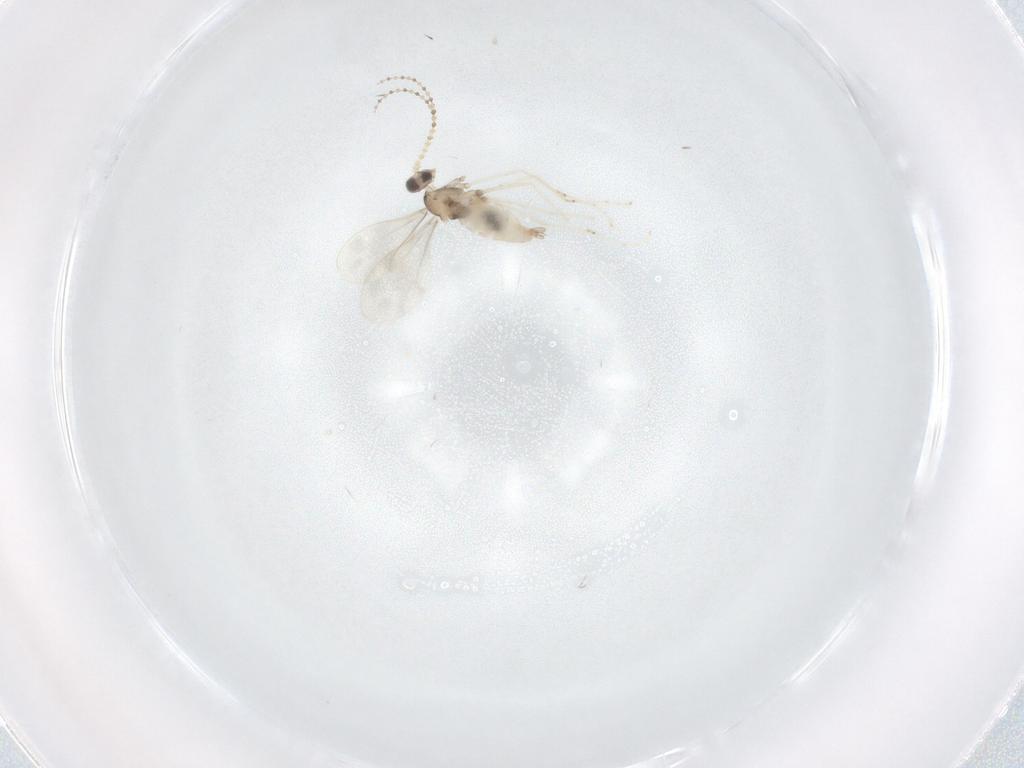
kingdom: Animalia
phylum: Arthropoda
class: Insecta
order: Diptera
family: Cecidomyiidae
